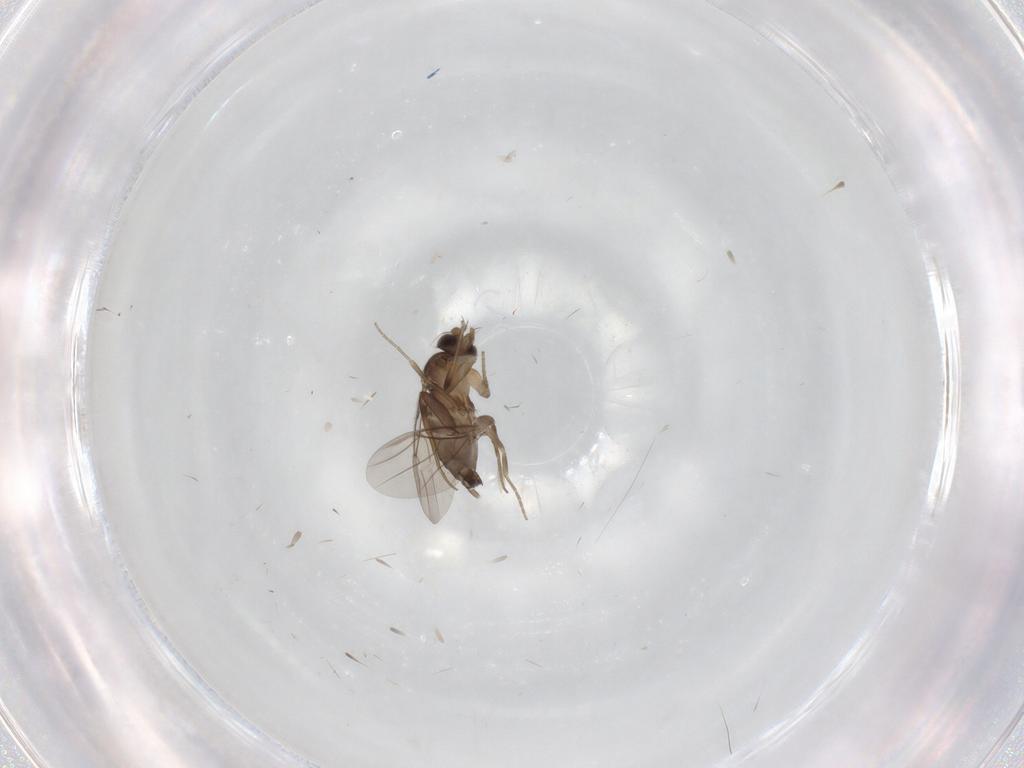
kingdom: Animalia
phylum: Arthropoda
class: Insecta
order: Diptera
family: Phoridae
